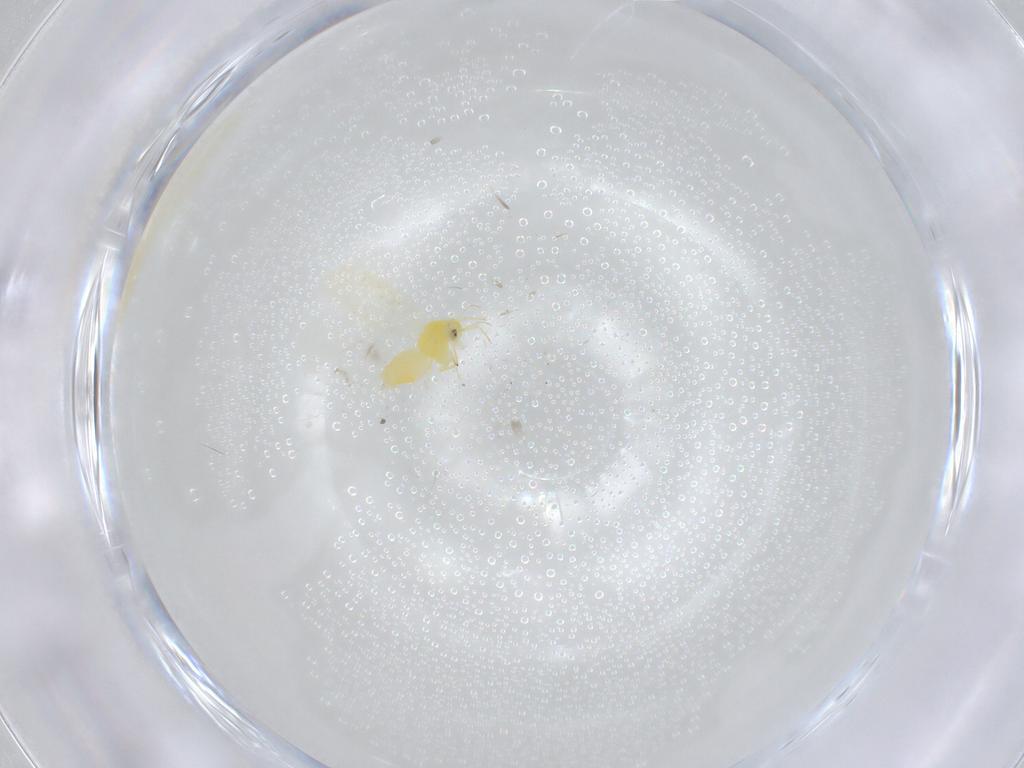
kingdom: Animalia
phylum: Arthropoda
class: Insecta
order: Hemiptera
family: Aleyrodidae
